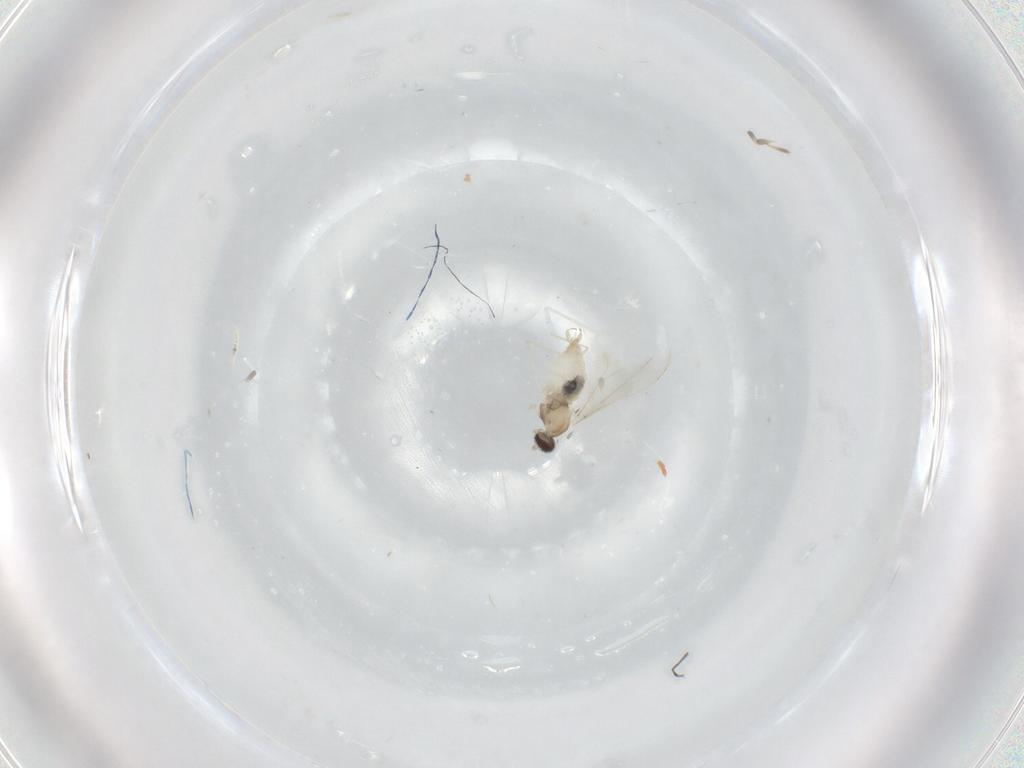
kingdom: Animalia
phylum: Arthropoda
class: Insecta
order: Diptera
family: Cecidomyiidae
